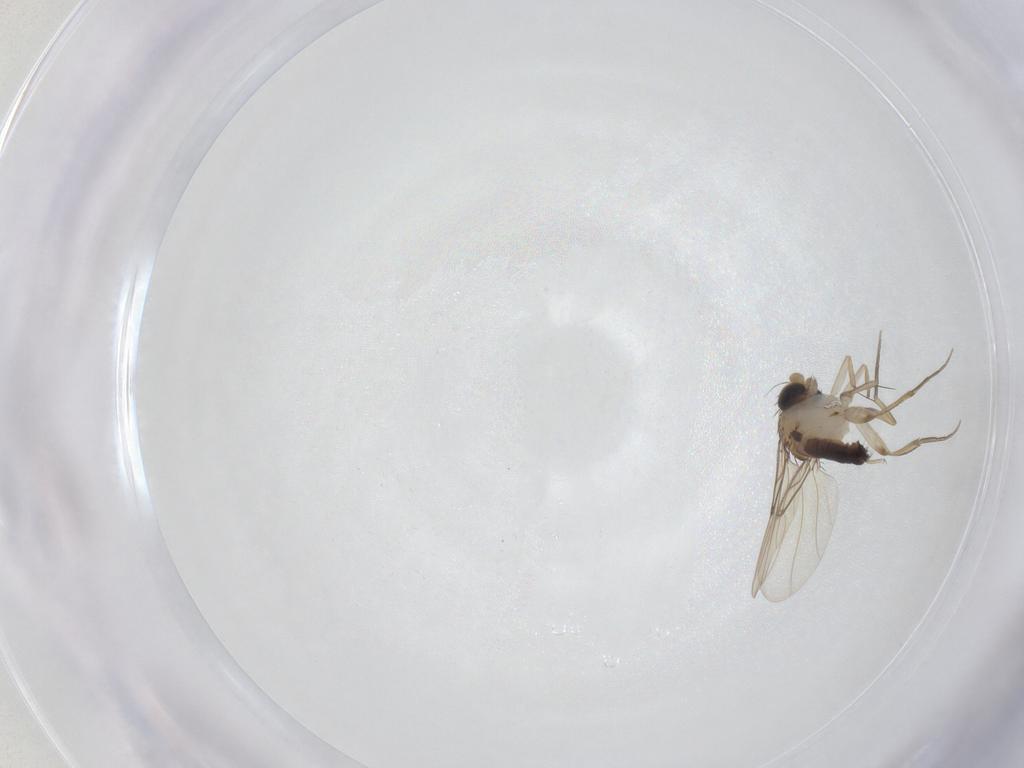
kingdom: Animalia
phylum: Arthropoda
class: Insecta
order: Diptera
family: Phoridae
